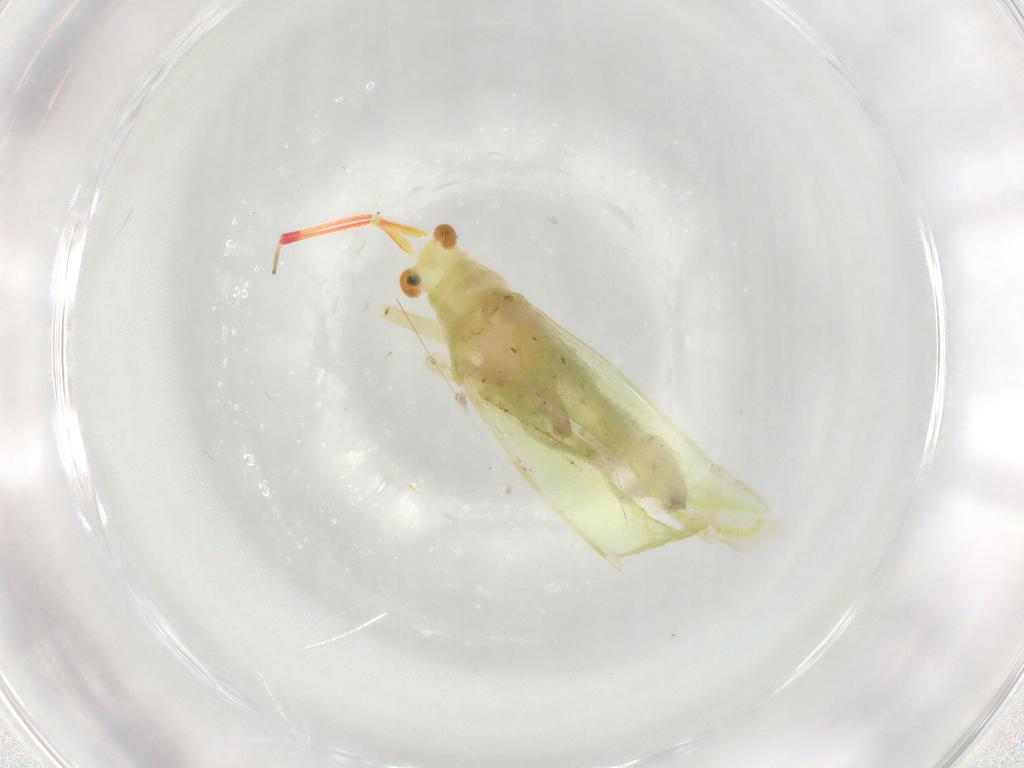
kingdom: Animalia
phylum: Arthropoda
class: Insecta
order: Hemiptera
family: Miridae
